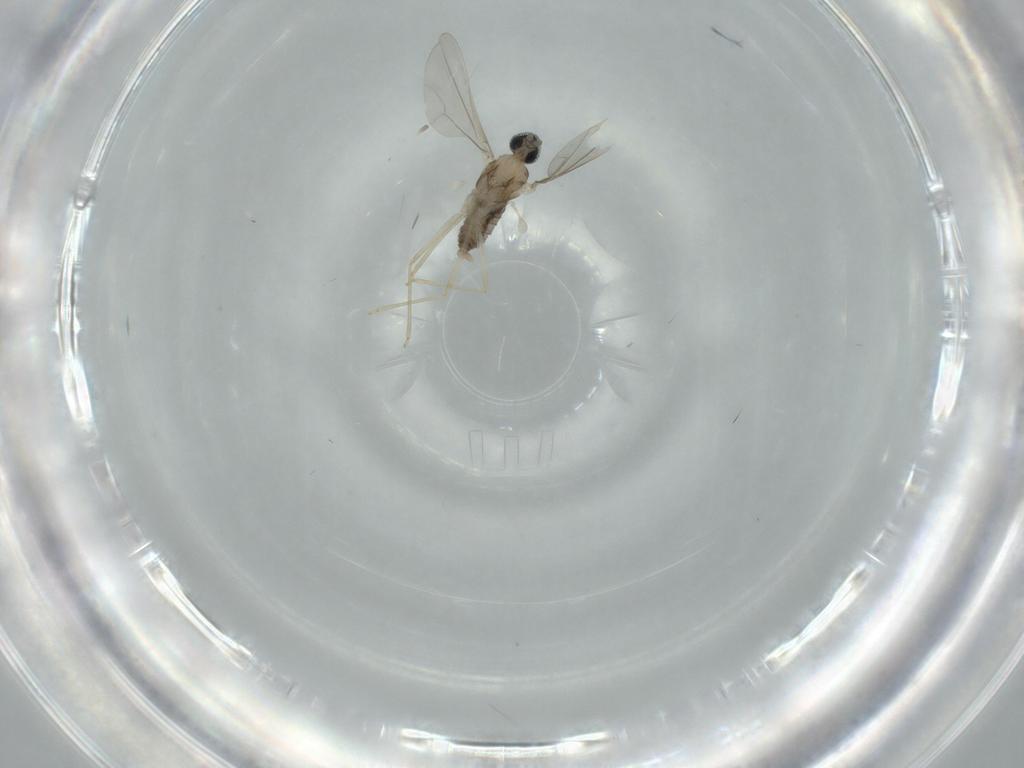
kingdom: Animalia
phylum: Arthropoda
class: Insecta
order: Diptera
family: Cecidomyiidae
